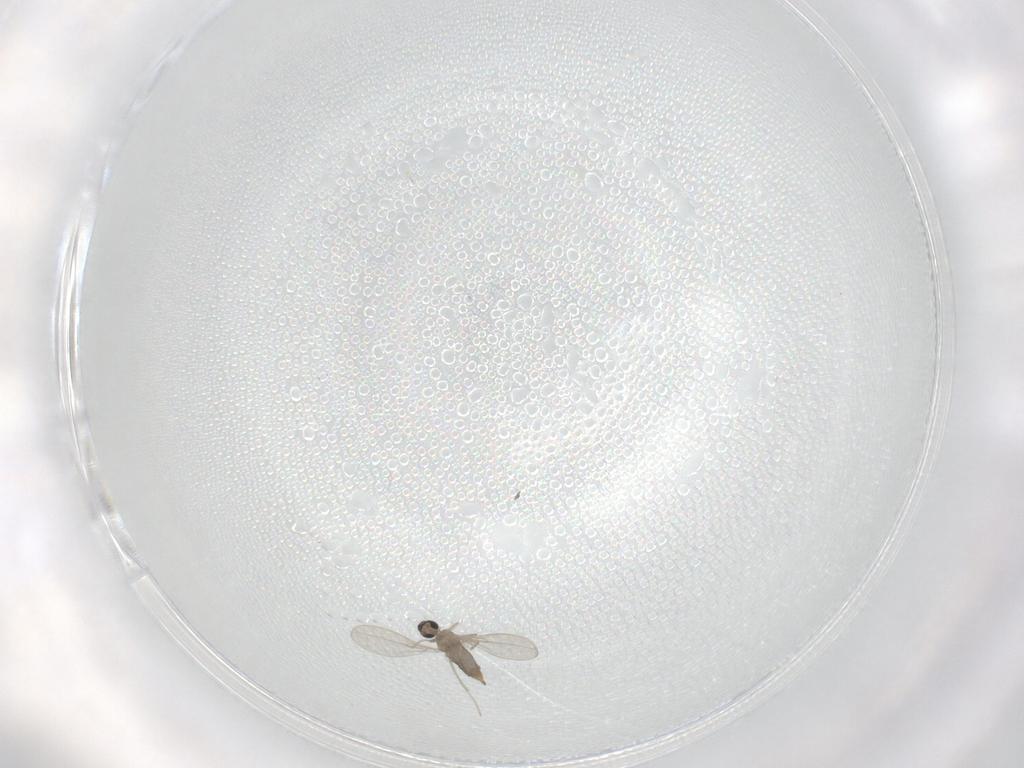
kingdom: Animalia
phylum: Arthropoda
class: Insecta
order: Diptera
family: Cecidomyiidae
